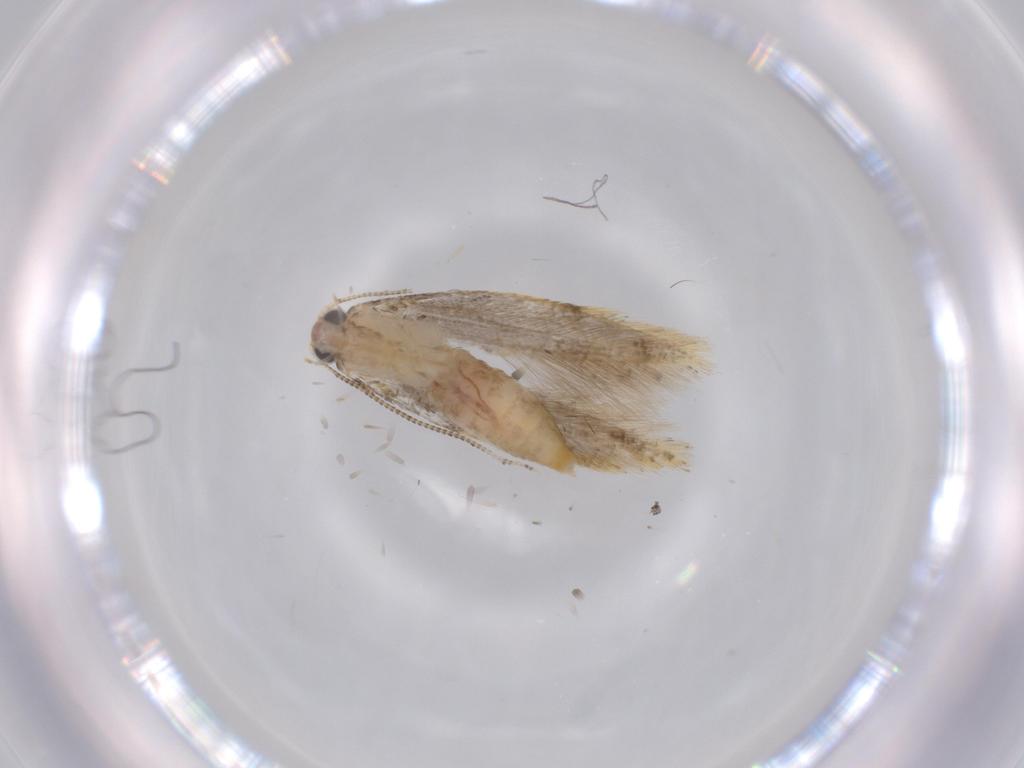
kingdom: Animalia
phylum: Arthropoda
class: Insecta
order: Lepidoptera
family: Tineidae
